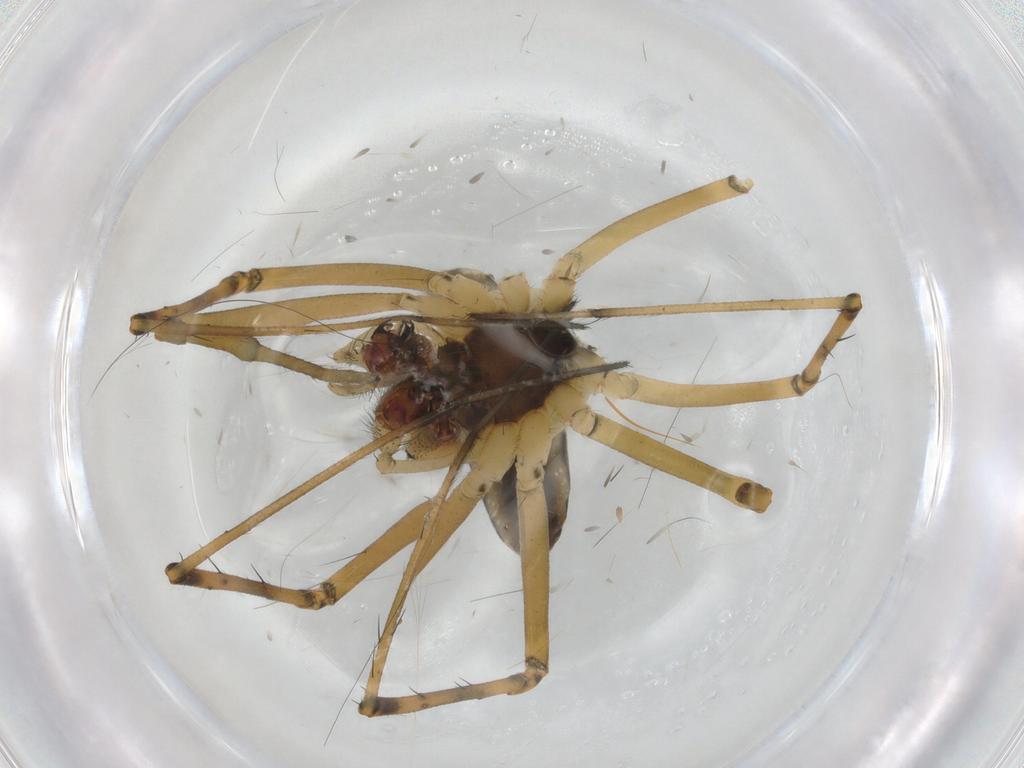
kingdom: Animalia
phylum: Arthropoda
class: Arachnida
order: Araneae
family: Linyphiidae
